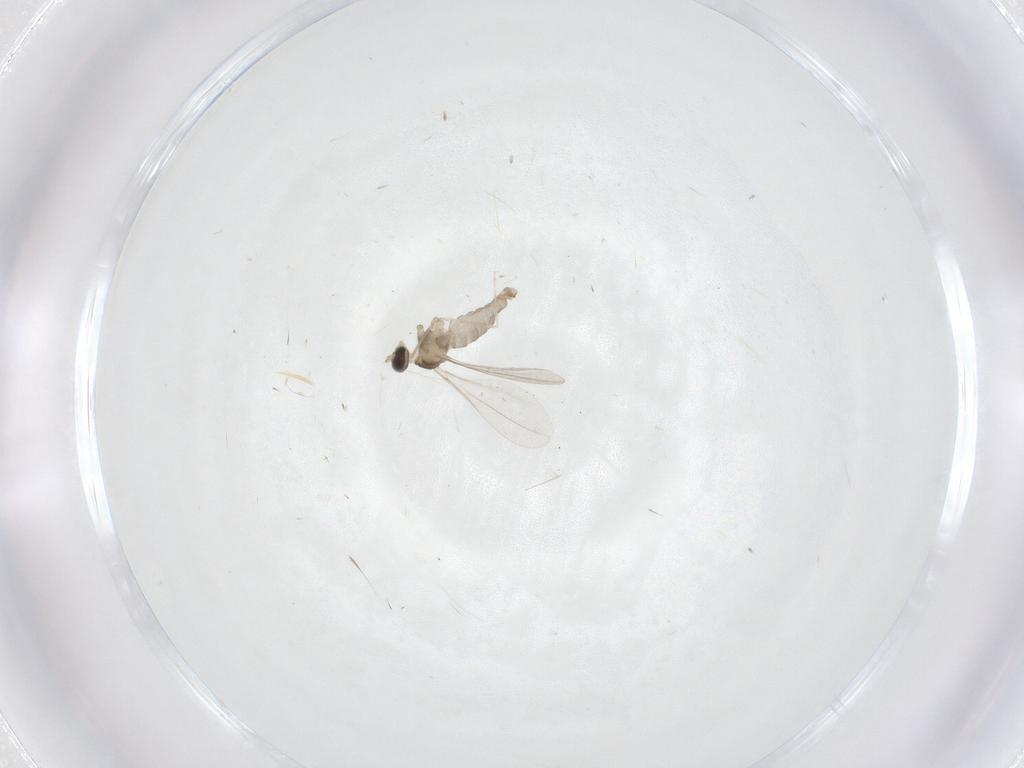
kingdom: Animalia
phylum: Arthropoda
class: Insecta
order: Diptera
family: Cecidomyiidae
